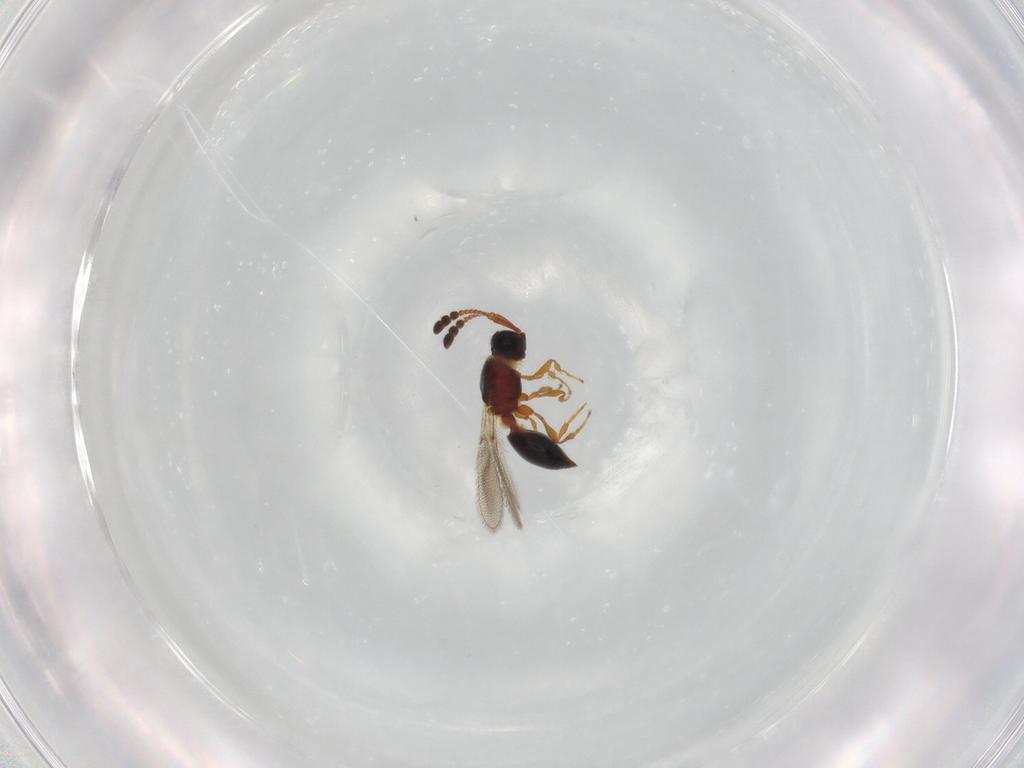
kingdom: Animalia
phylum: Arthropoda
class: Insecta
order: Hymenoptera
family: Diapriidae
